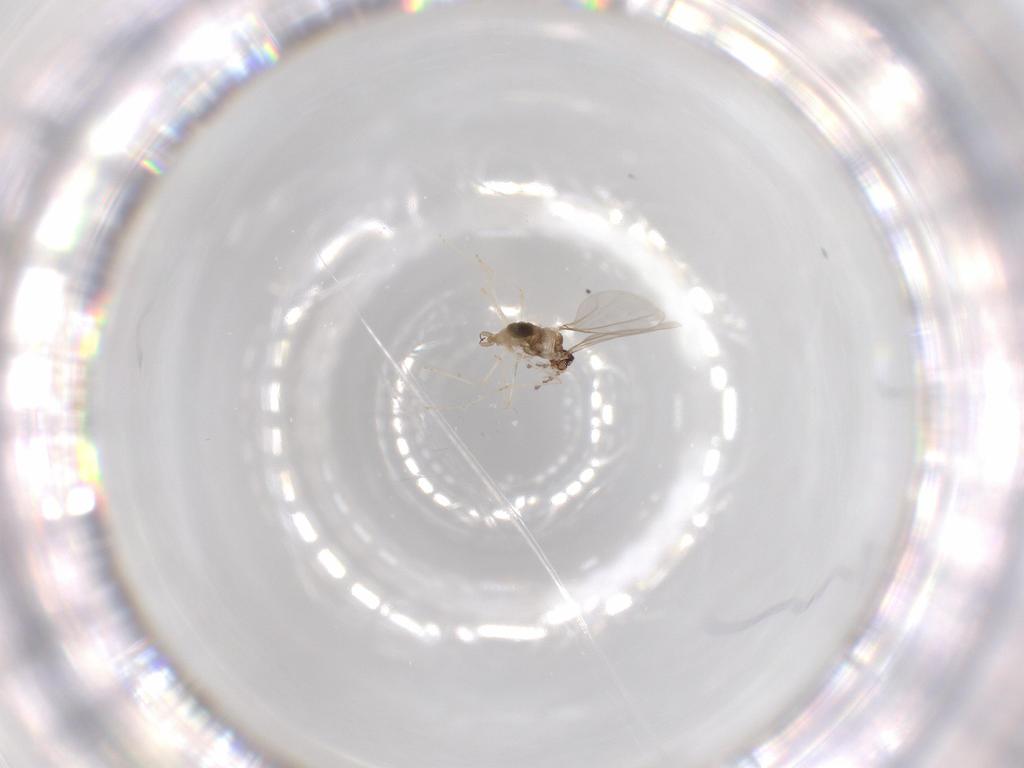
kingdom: Animalia
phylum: Arthropoda
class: Insecta
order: Diptera
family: Cecidomyiidae
